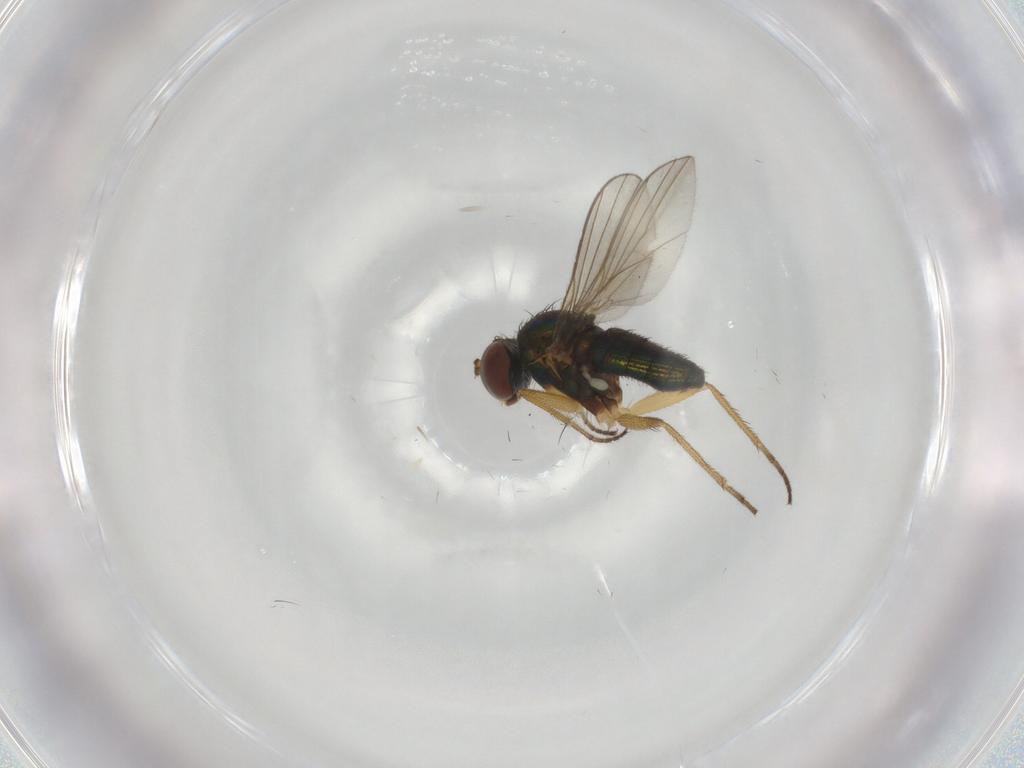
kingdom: Animalia
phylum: Arthropoda
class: Insecta
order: Diptera
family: Dolichopodidae
